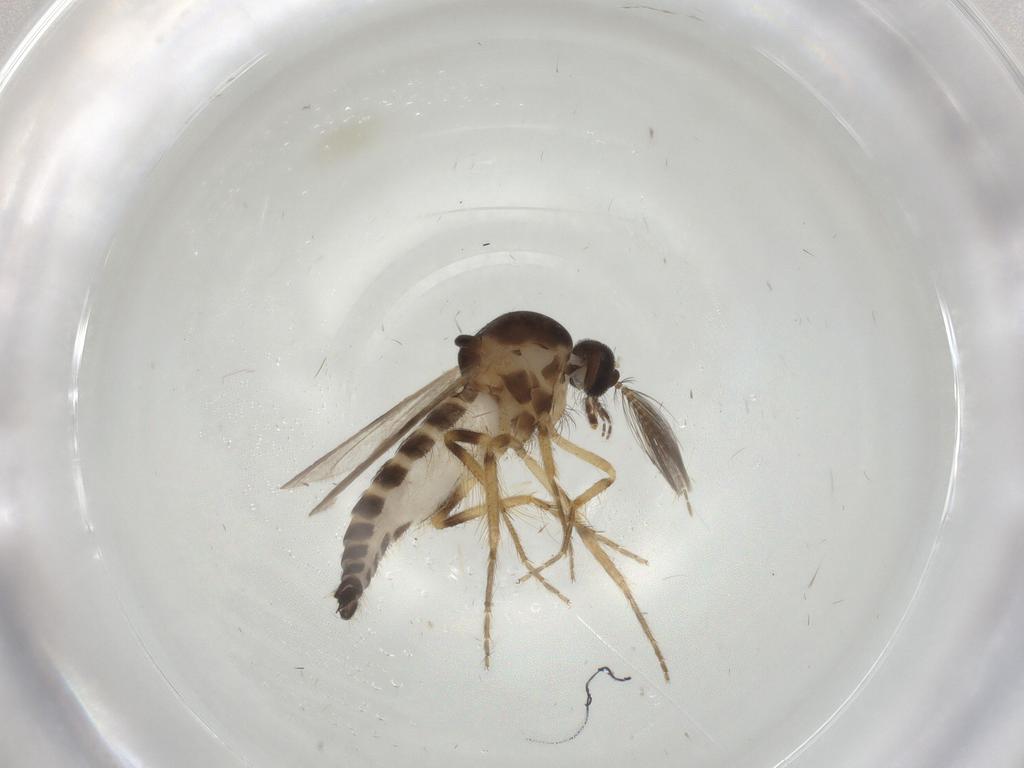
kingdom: Animalia
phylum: Arthropoda
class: Insecta
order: Diptera
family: Ceratopogonidae
